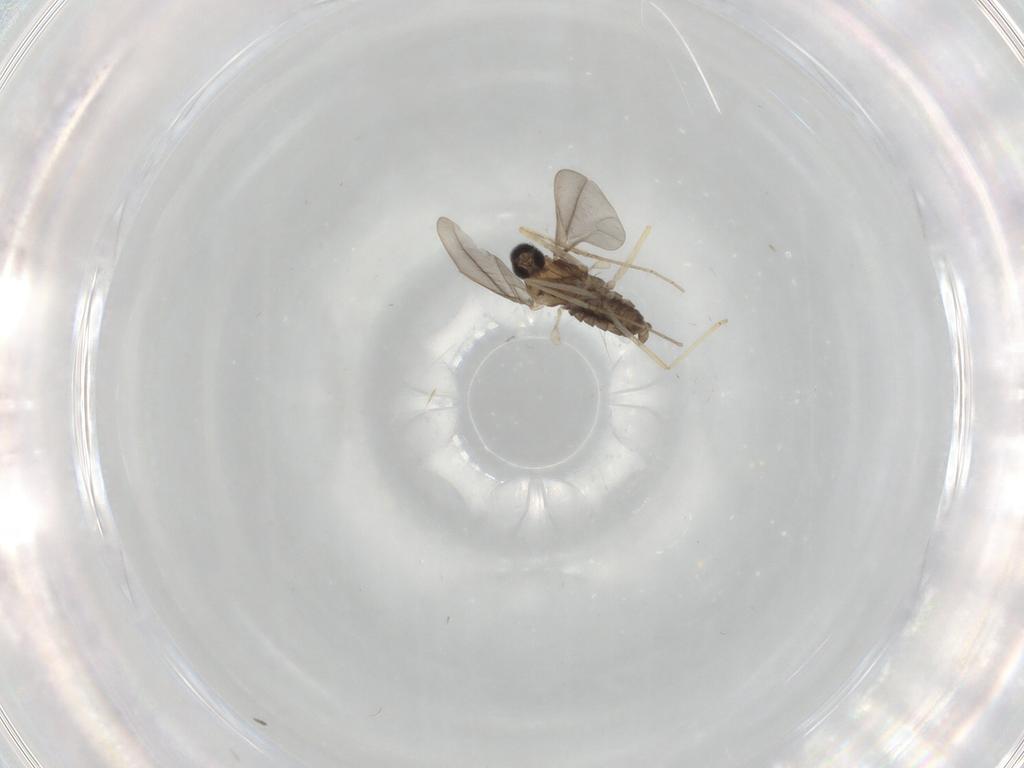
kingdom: Animalia
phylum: Arthropoda
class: Insecta
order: Diptera
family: Cecidomyiidae
